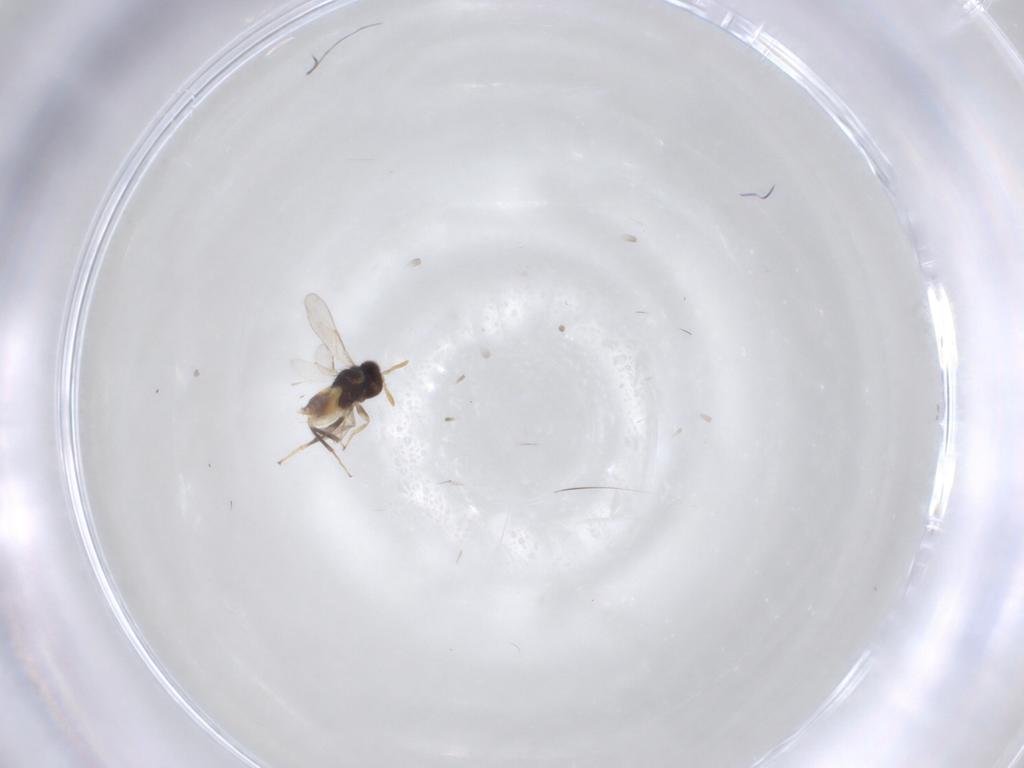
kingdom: Animalia
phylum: Arthropoda
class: Insecta
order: Hymenoptera
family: Aphelinidae
